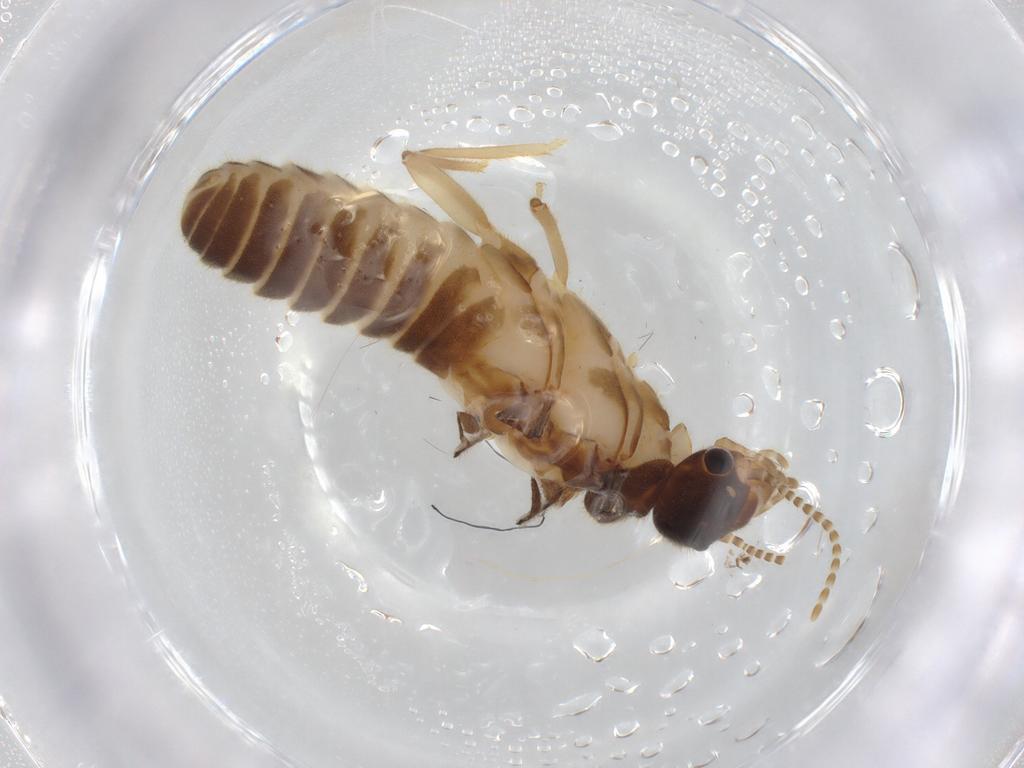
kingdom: Animalia
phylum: Arthropoda
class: Insecta
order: Blattodea
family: Termitidae
